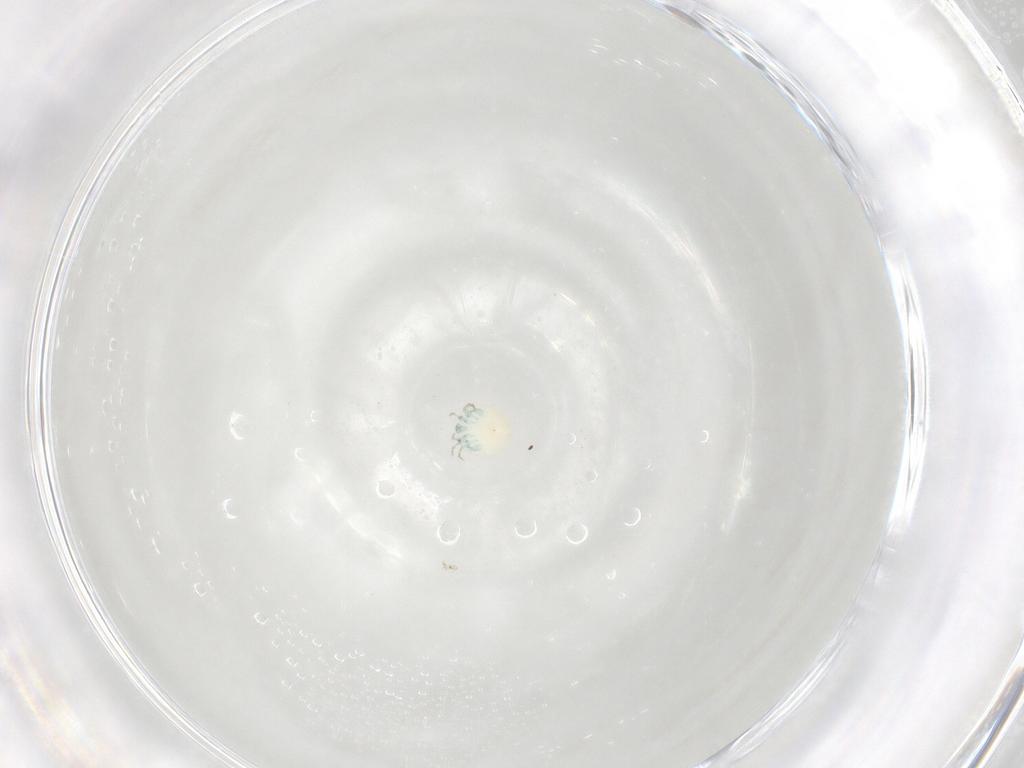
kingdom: Animalia
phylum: Arthropoda
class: Arachnida
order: Trombidiformes
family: Arrenuridae
